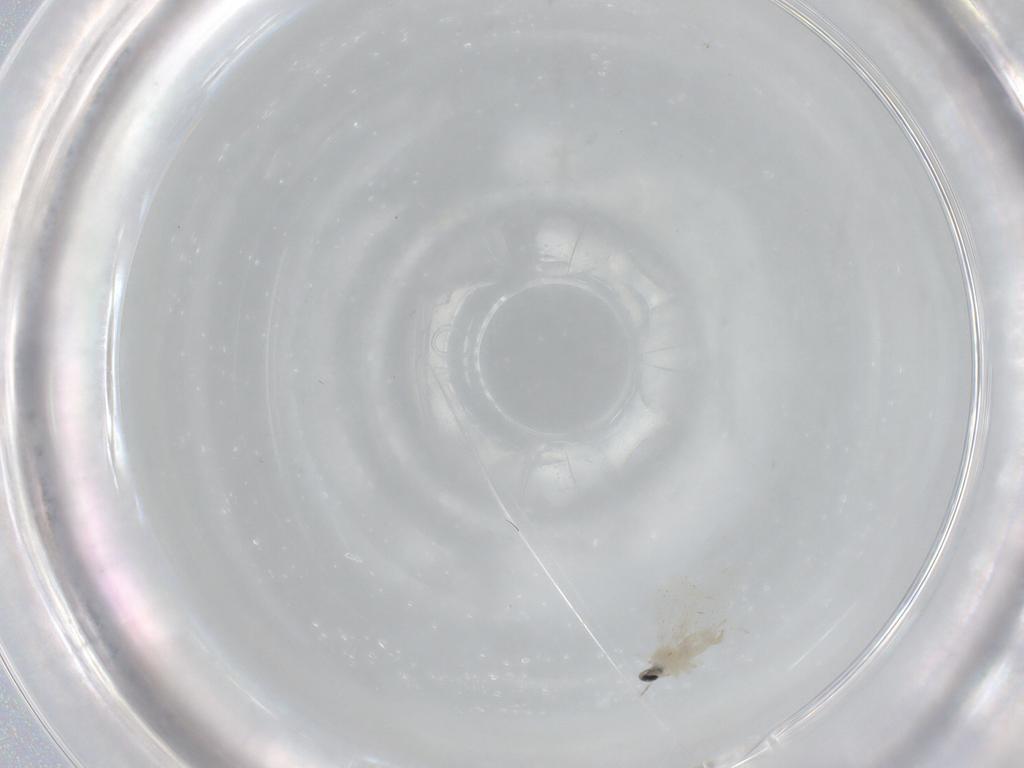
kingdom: Animalia
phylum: Arthropoda
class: Insecta
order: Diptera
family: Cecidomyiidae
